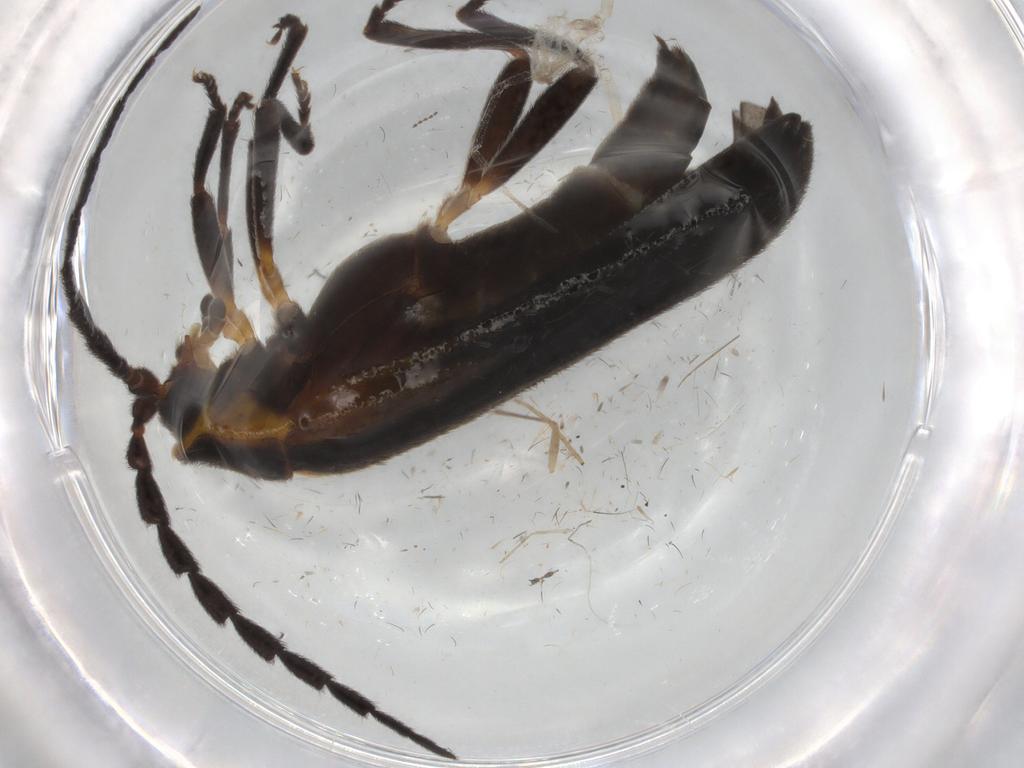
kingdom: Animalia
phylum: Arthropoda
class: Insecta
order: Coleoptera
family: Lycidae
